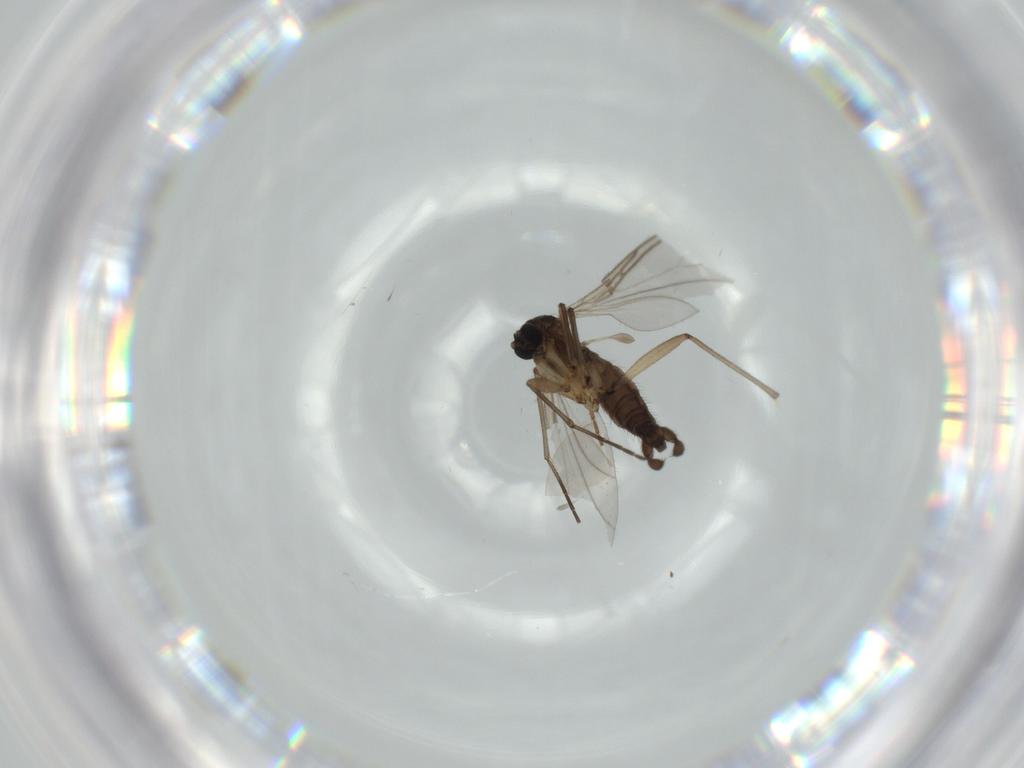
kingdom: Animalia
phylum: Arthropoda
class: Insecta
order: Diptera
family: Sciaridae
